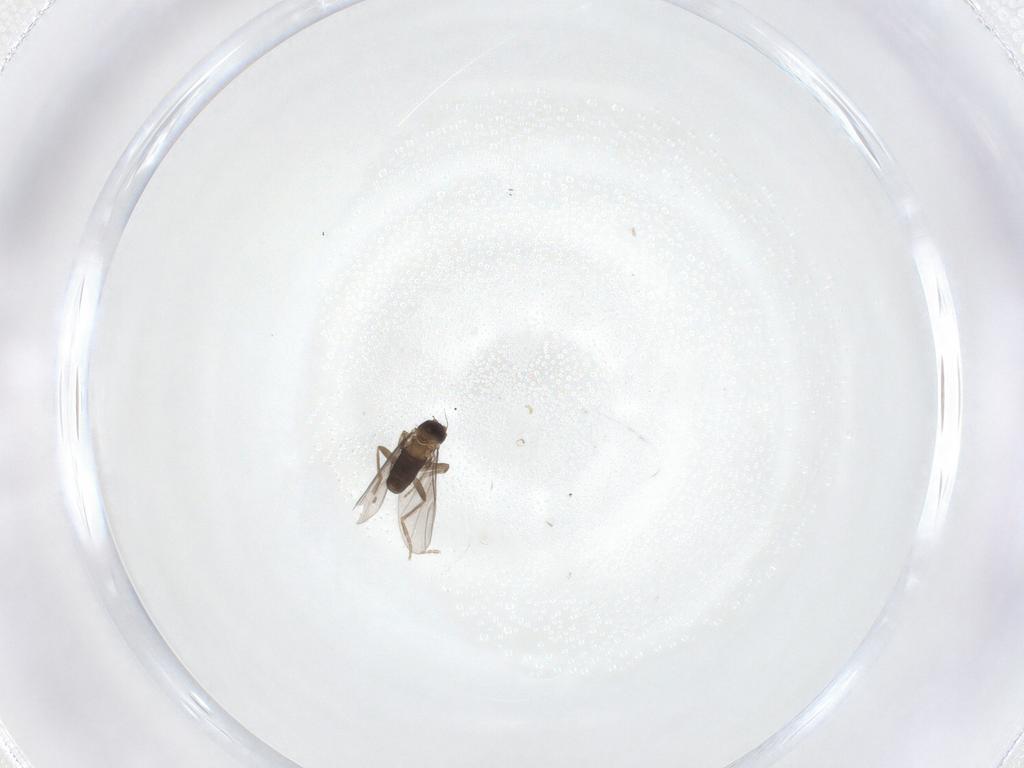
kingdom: Animalia
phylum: Arthropoda
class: Insecta
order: Diptera
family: Phoridae
